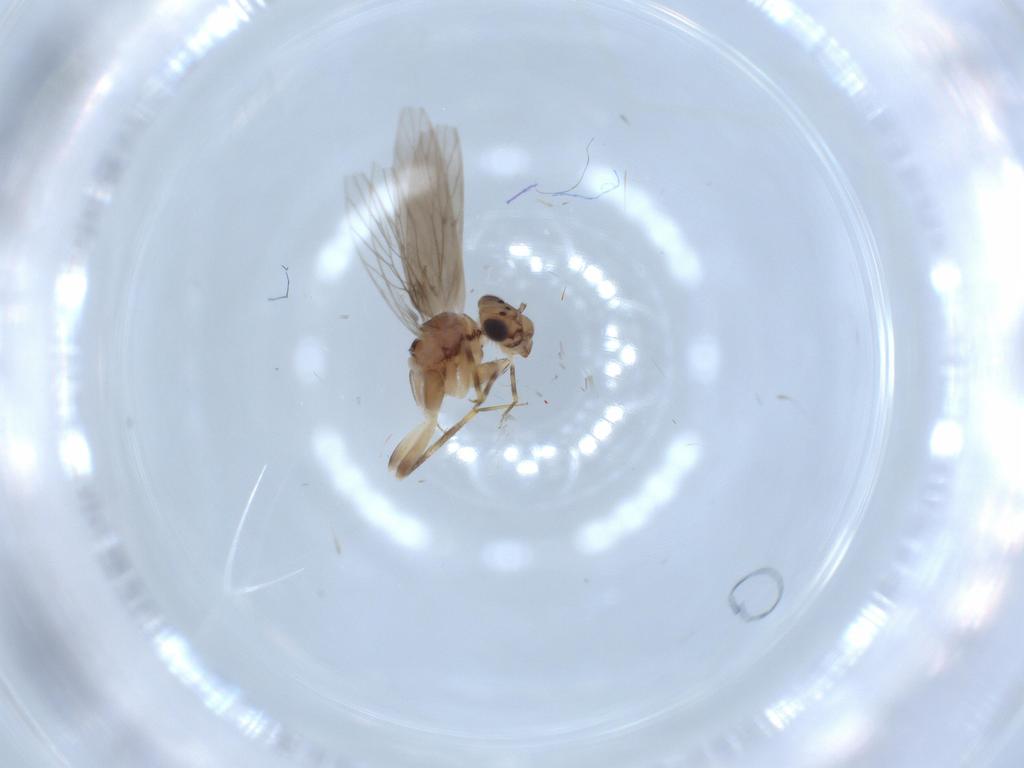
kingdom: Animalia
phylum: Arthropoda
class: Insecta
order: Psocodea
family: Lepidopsocidae
